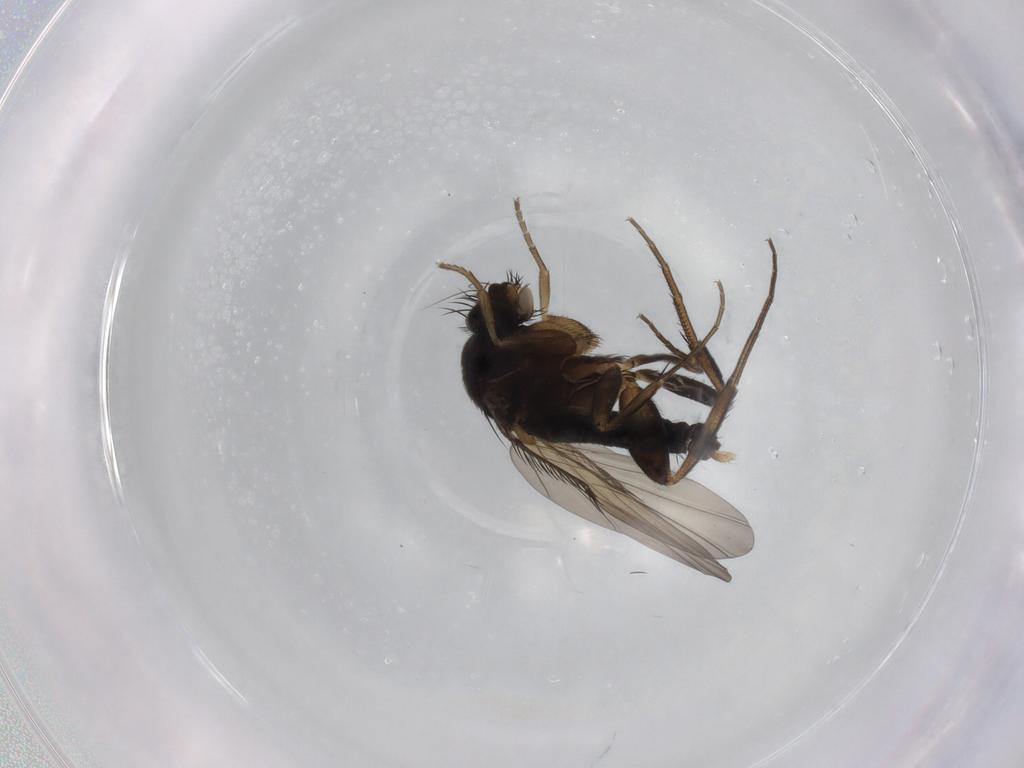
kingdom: Animalia
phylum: Arthropoda
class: Insecta
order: Diptera
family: Phoridae
